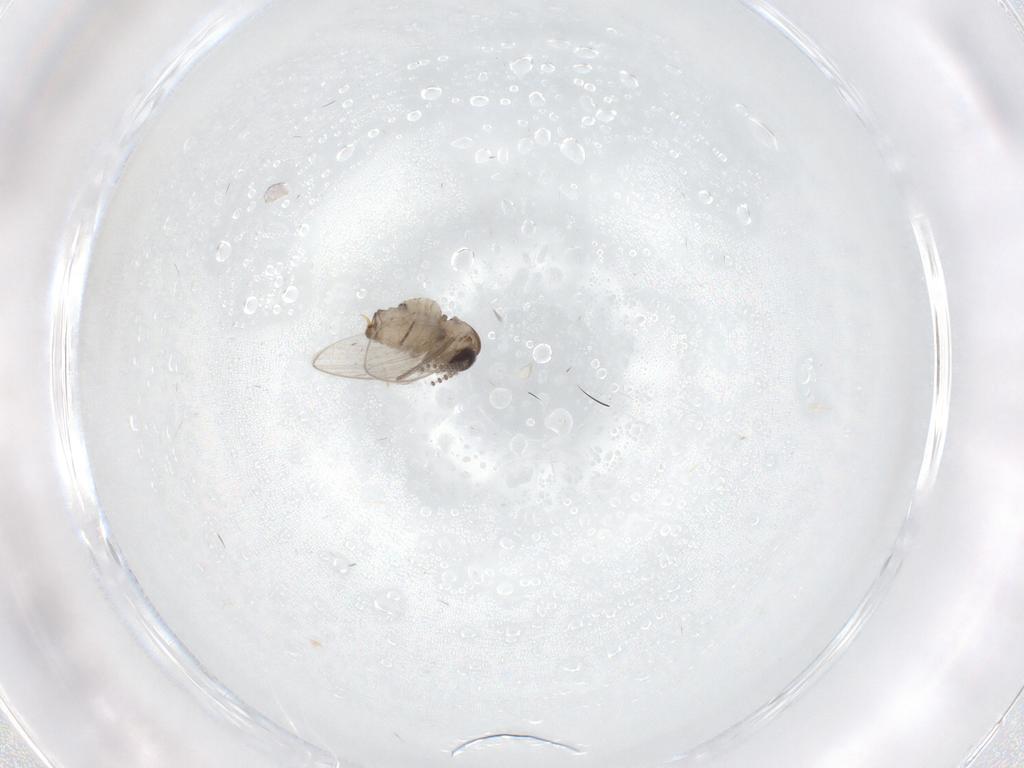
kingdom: Animalia
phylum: Arthropoda
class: Insecta
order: Diptera
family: Psychodidae
